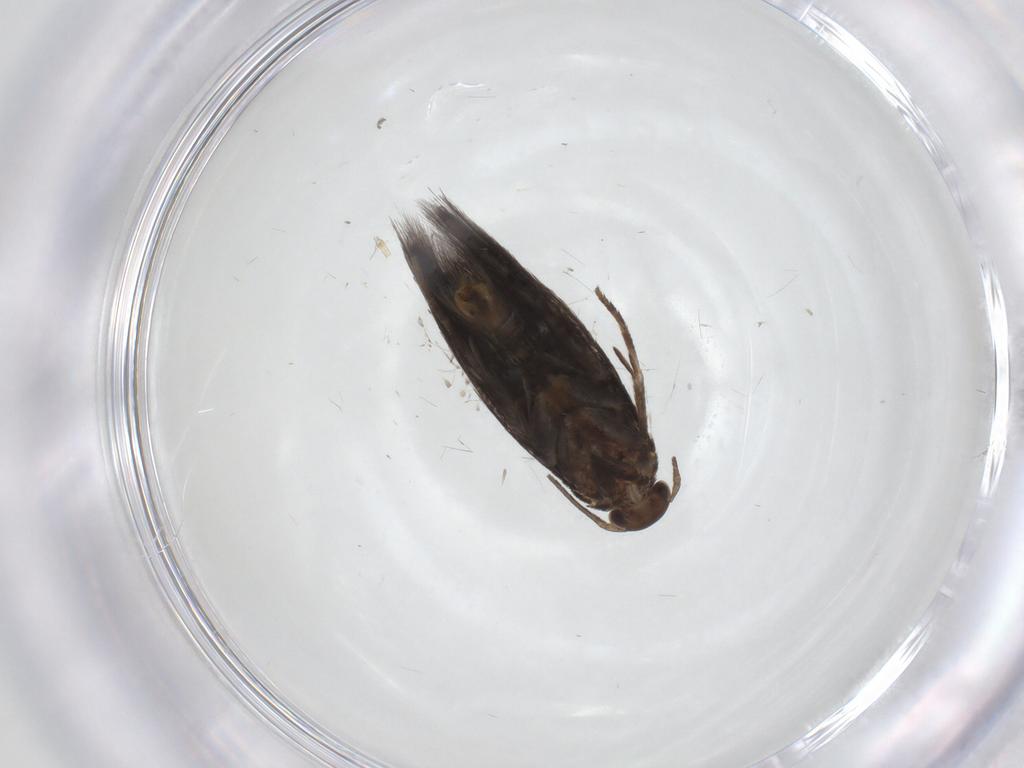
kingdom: Animalia
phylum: Arthropoda
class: Insecta
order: Lepidoptera
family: Elachistidae
